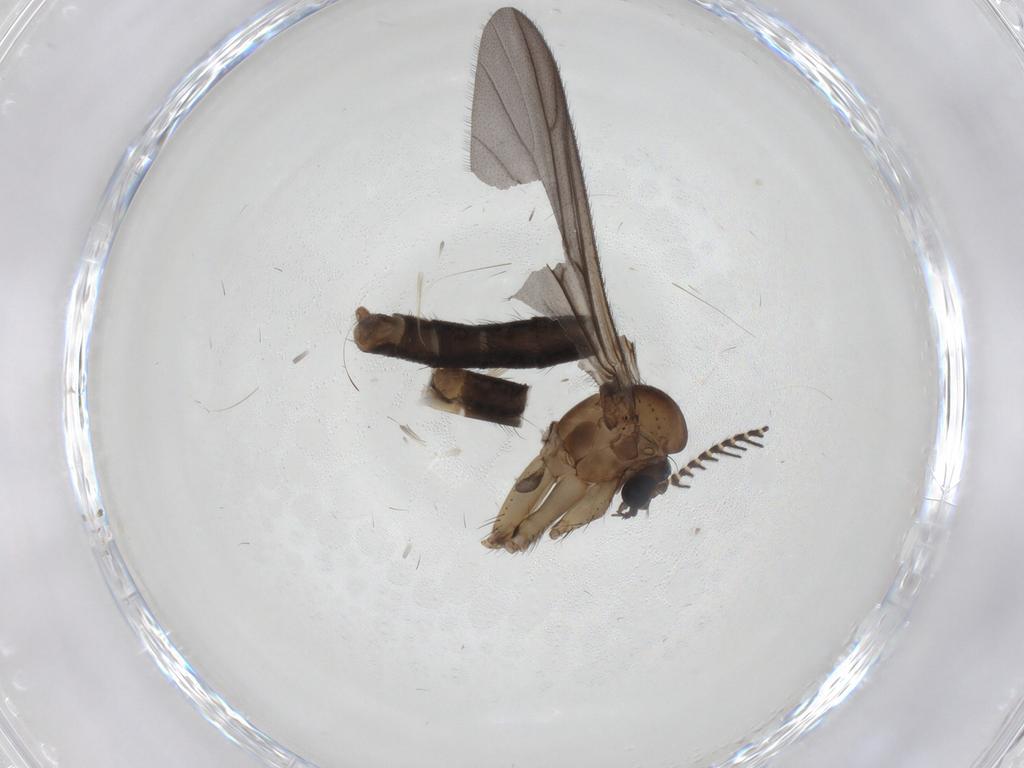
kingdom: Animalia
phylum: Arthropoda
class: Insecta
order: Diptera
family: Cecidomyiidae
